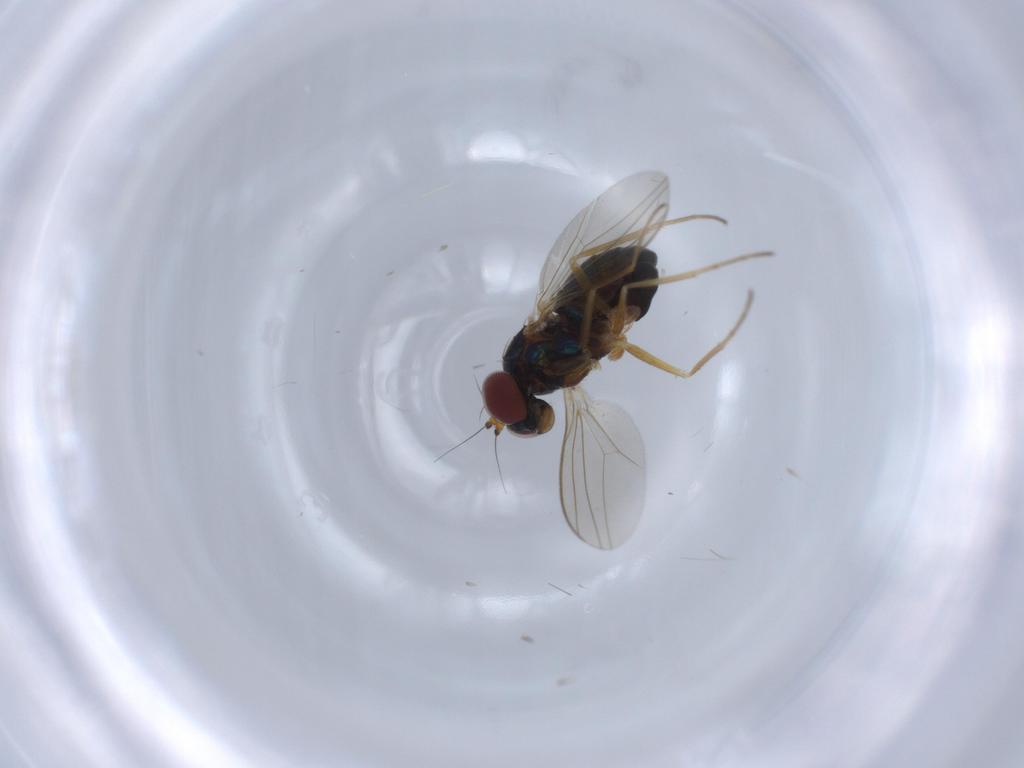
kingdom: Animalia
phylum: Arthropoda
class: Insecta
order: Diptera
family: Dolichopodidae
